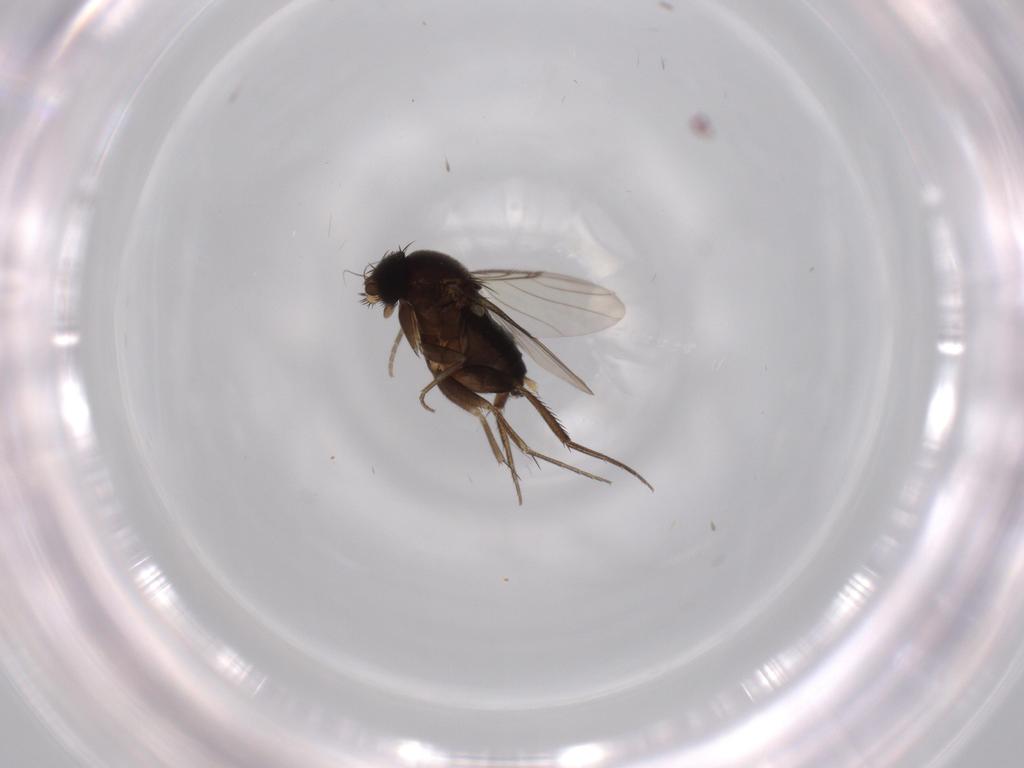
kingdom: Animalia
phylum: Arthropoda
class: Insecta
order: Diptera
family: Phoridae
